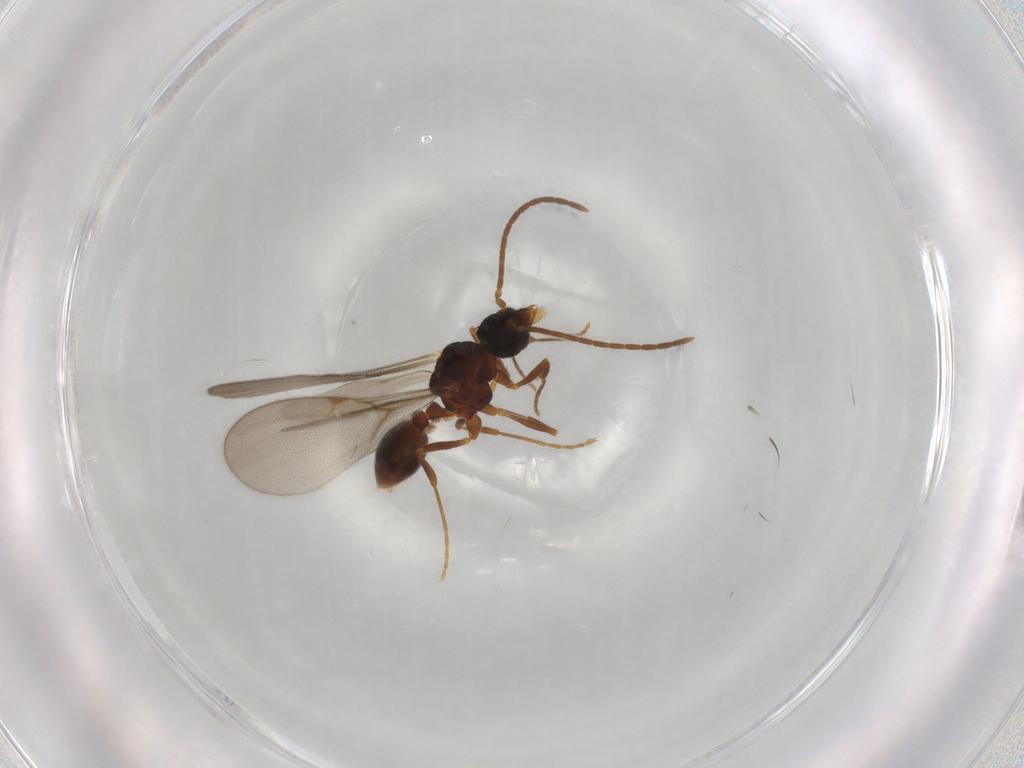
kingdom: Animalia
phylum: Arthropoda
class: Insecta
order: Hymenoptera
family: Formicidae
